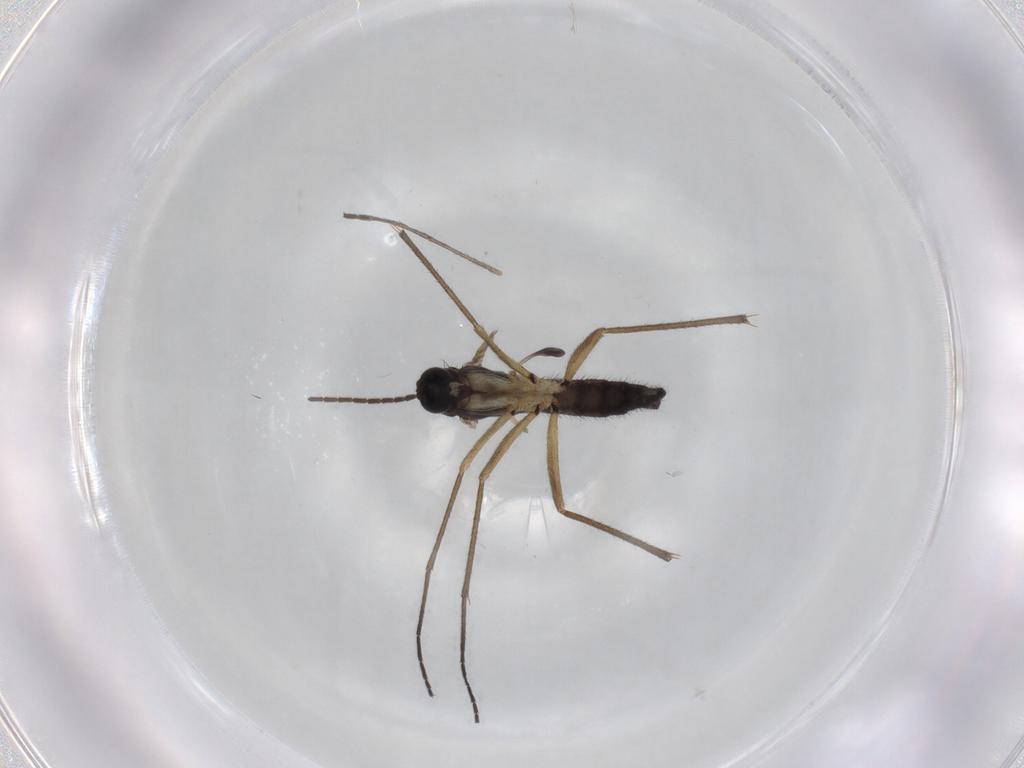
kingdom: Animalia
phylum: Arthropoda
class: Insecta
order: Diptera
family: Sciaridae
